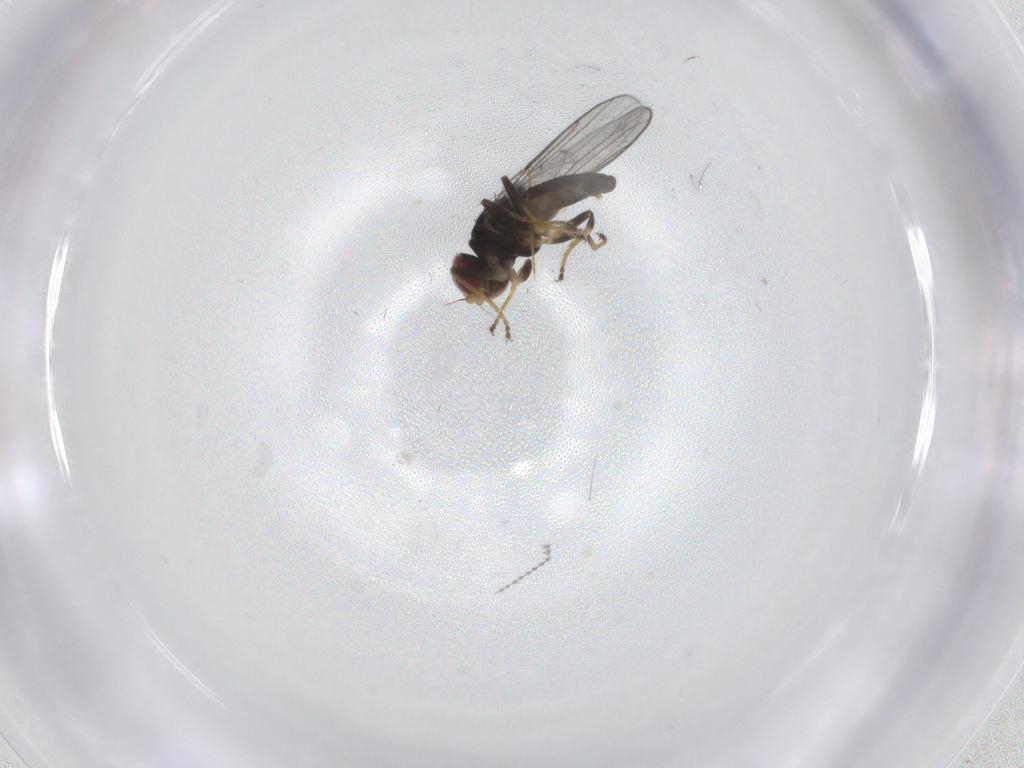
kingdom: Animalia
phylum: Arthropoda
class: Insecta
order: Diptera
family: Chloropidae
